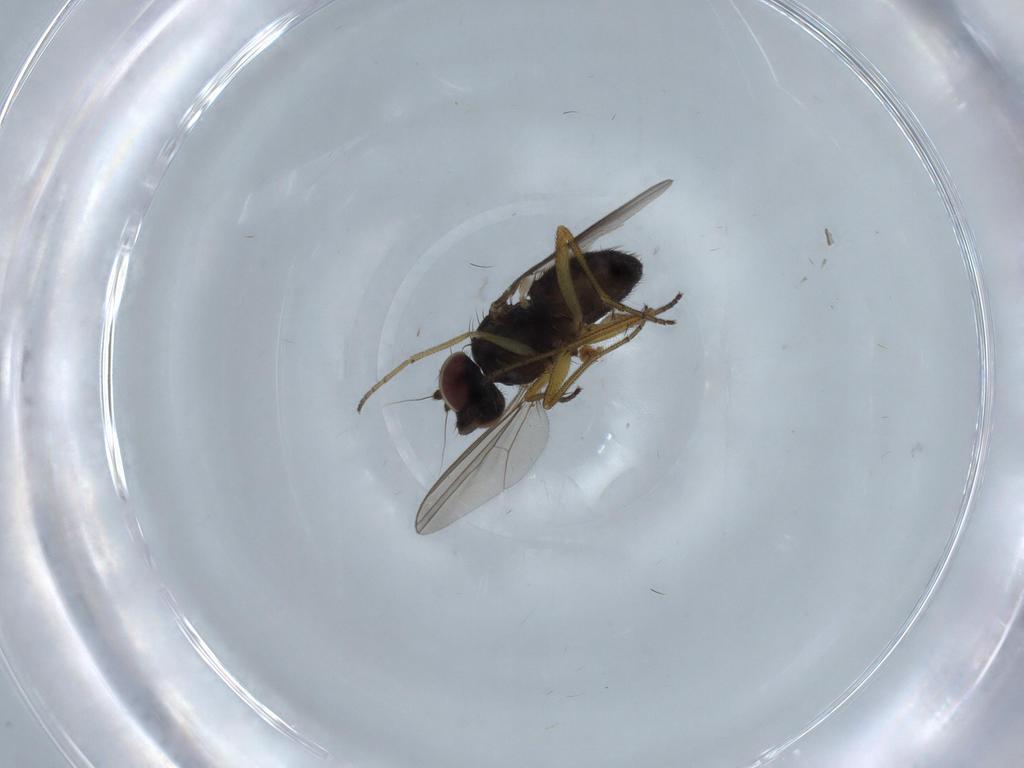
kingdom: Animalia
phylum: Arthropoda
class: Insecta
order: Diptera
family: Dolichopodidae
